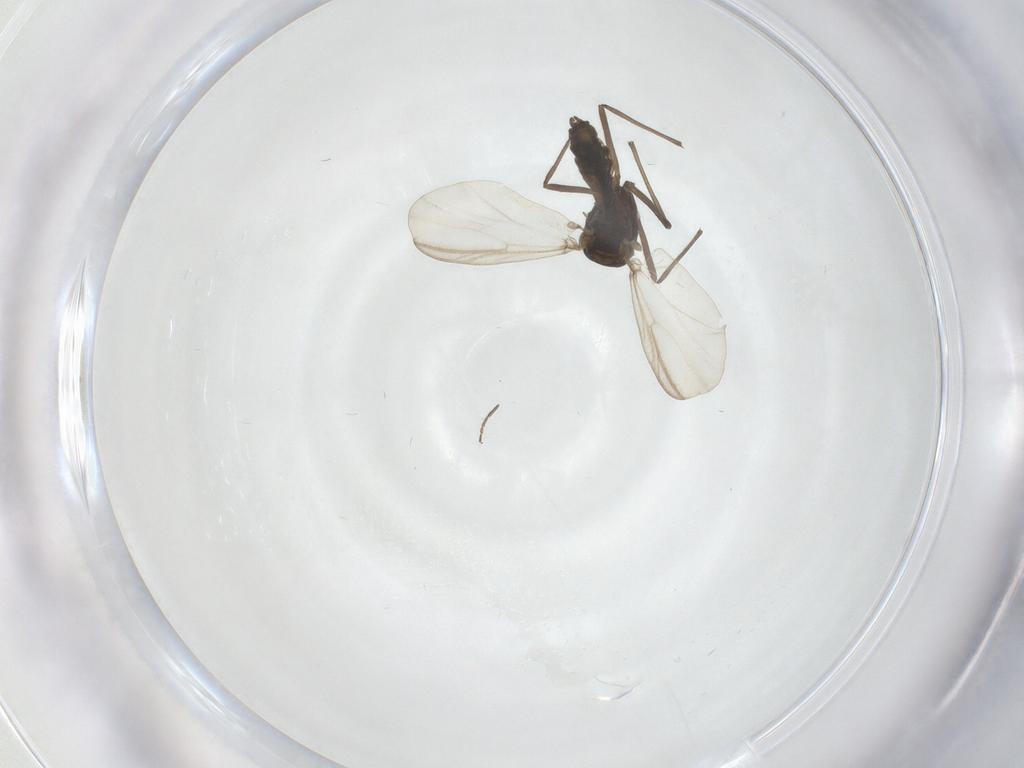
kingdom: Animalia
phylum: Arthropoda
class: Insecta
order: Diptera
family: Chironomidae
